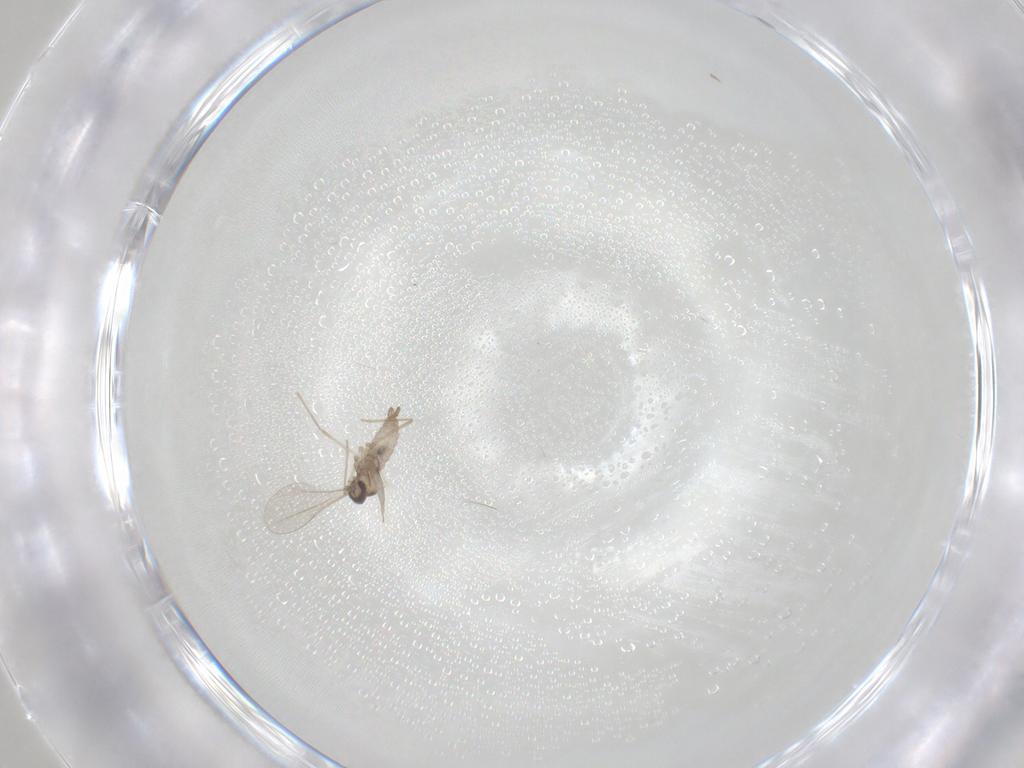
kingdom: Animalia
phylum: Arthropoda
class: Insecta
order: Diptera
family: Phoridae
